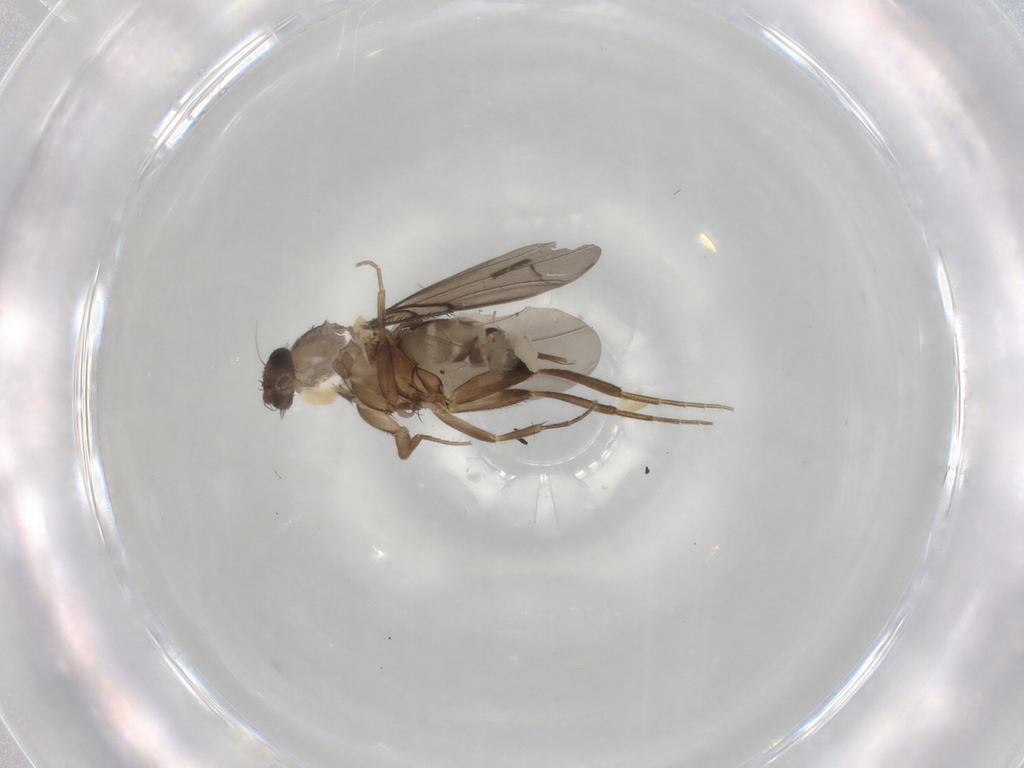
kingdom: Animalia
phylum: Arthropoda
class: Insecta
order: Diptera
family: Phoridae
